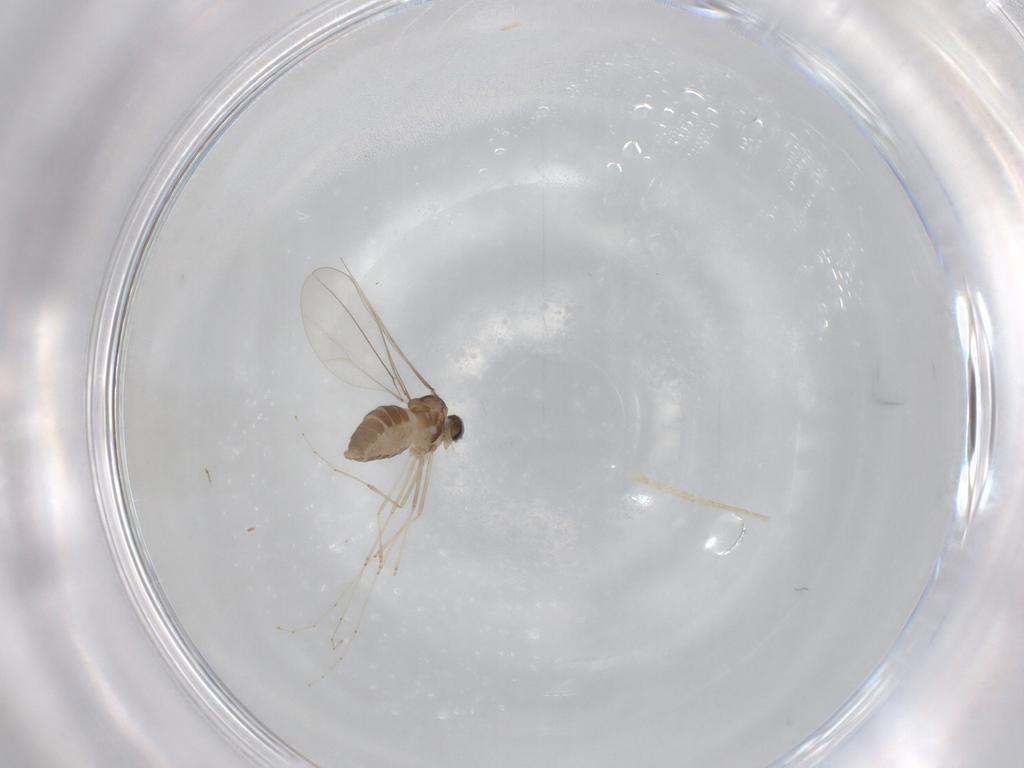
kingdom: Animalia
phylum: Arthropoda
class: Insecta
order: Diptera
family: Cecidomyiidae
